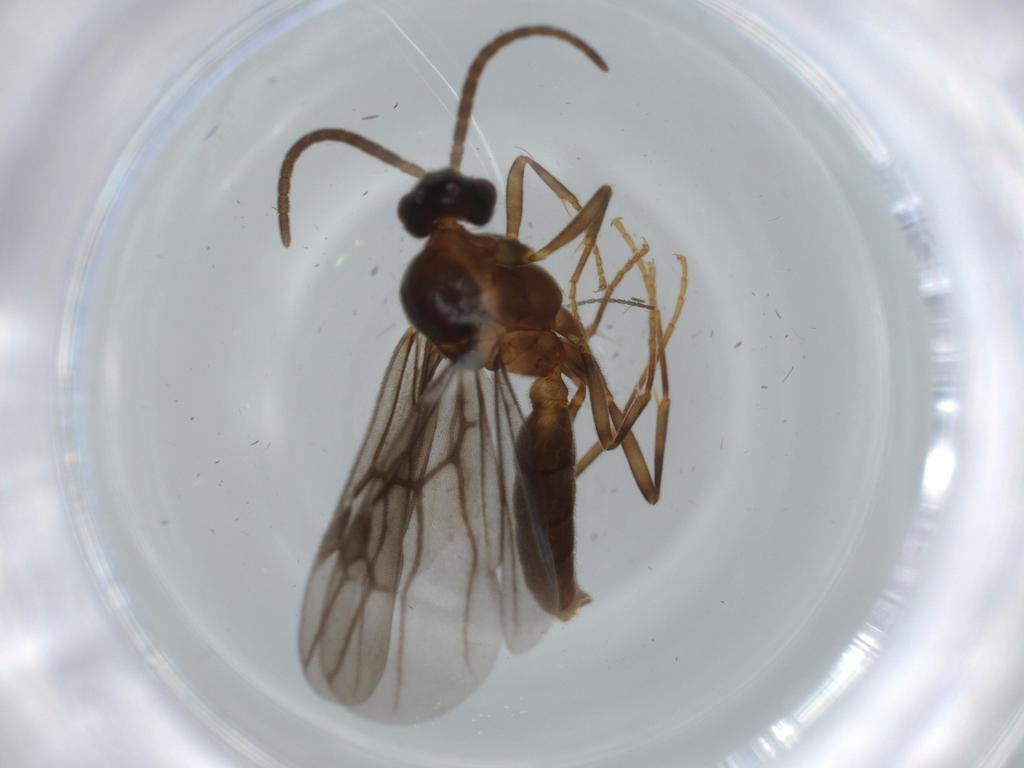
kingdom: Animalia
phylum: Arthropoda
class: Insecta
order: Hymenoptera
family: Formicidae
